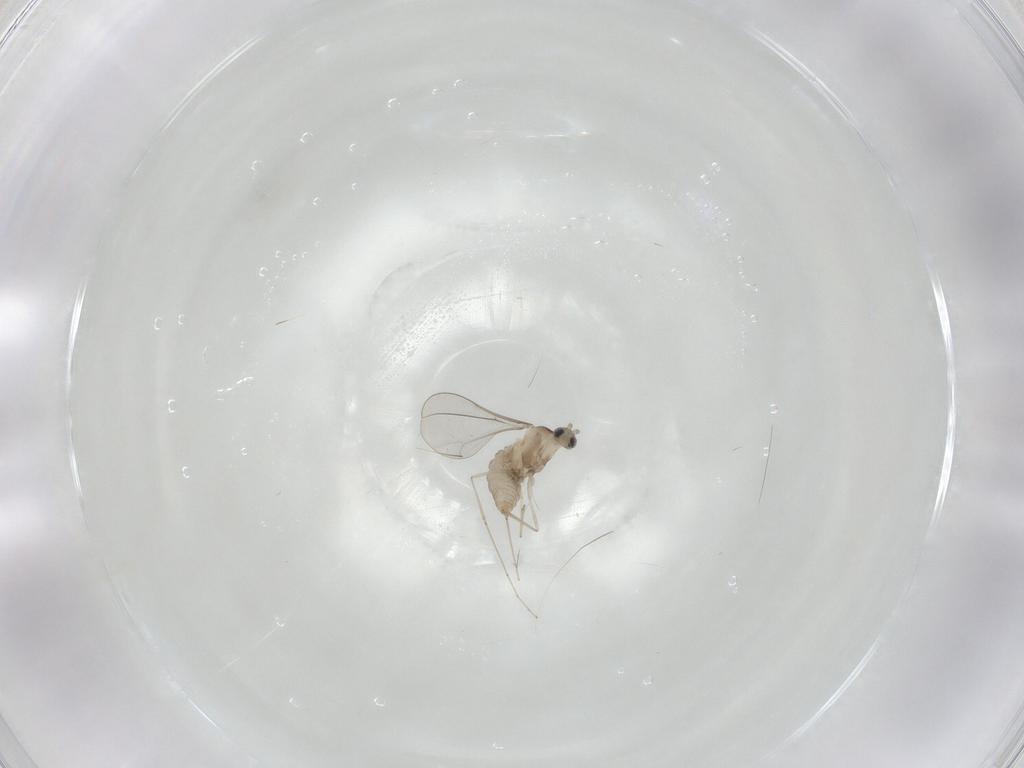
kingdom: Animalia
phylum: Arthropoda
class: Insecta
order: Diptera
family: Cecidomyiidae
